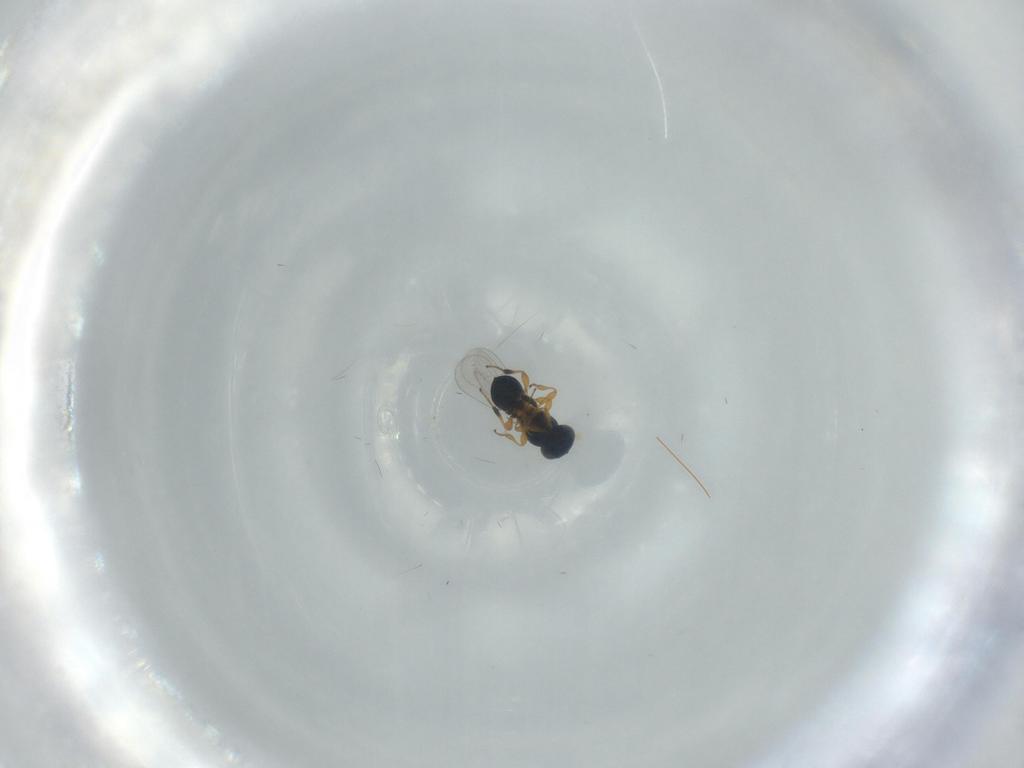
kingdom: Animalia
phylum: Arthropoda
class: Insecta
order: Hymenoptera
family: Platygastridae
